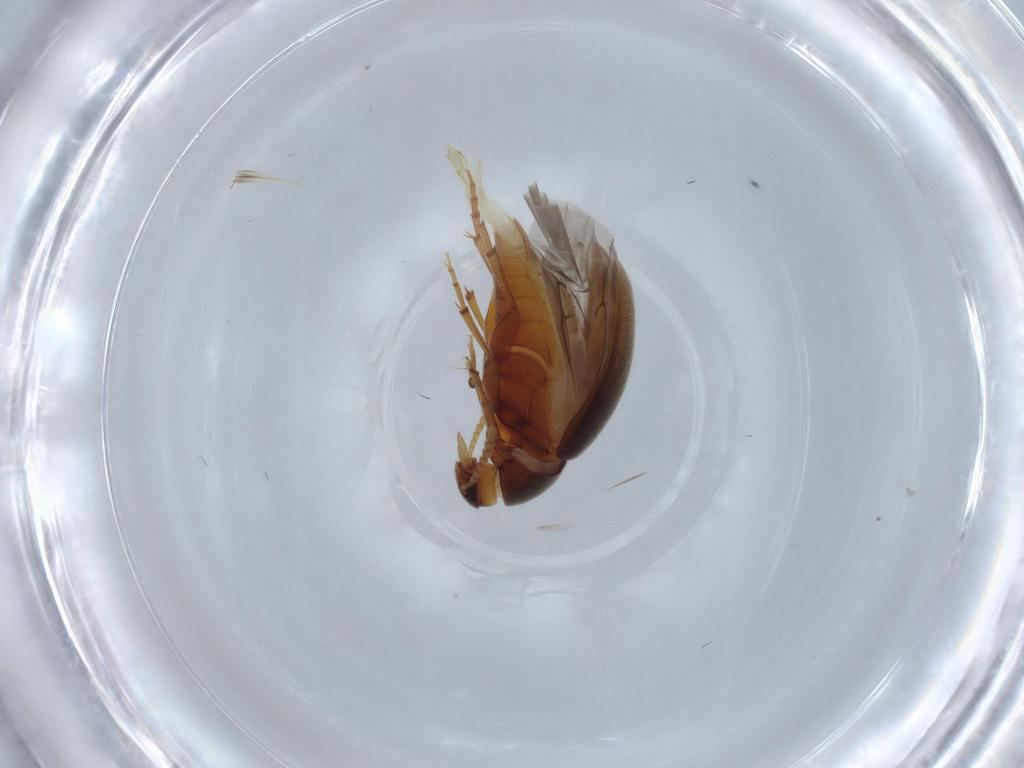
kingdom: Animalia
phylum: Arthropoda
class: Insecta
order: Coleoptera
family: Scraptiidae
